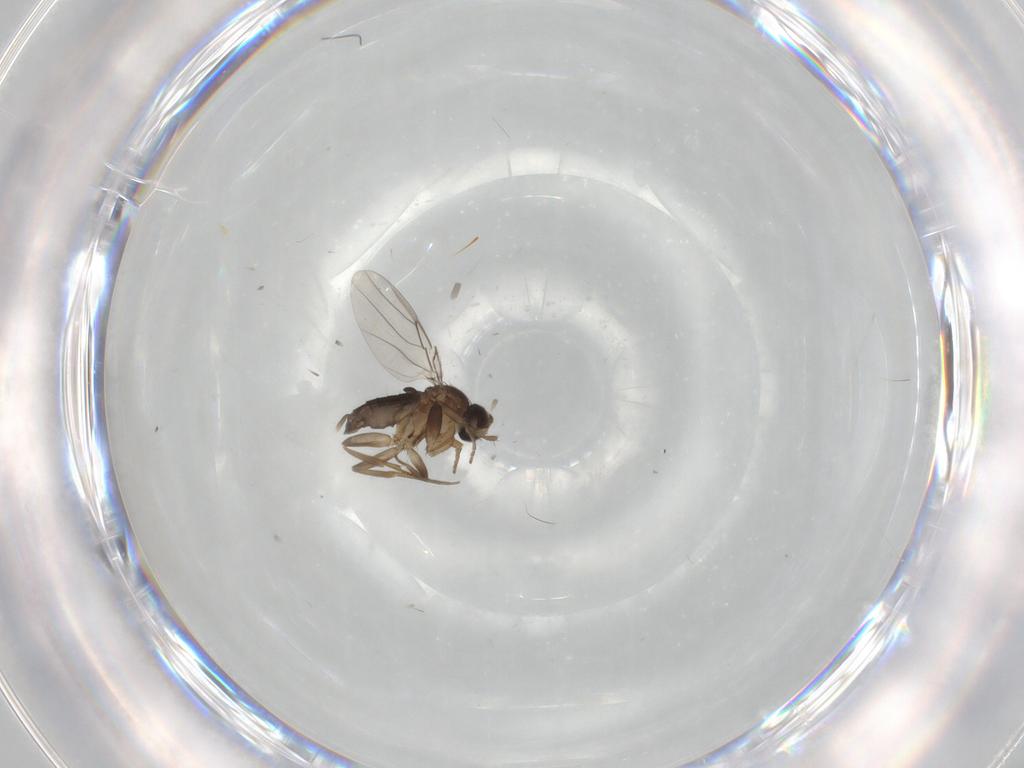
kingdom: Animalia
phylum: Arthropoda
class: Insecta
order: Diptera
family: Phoridae
